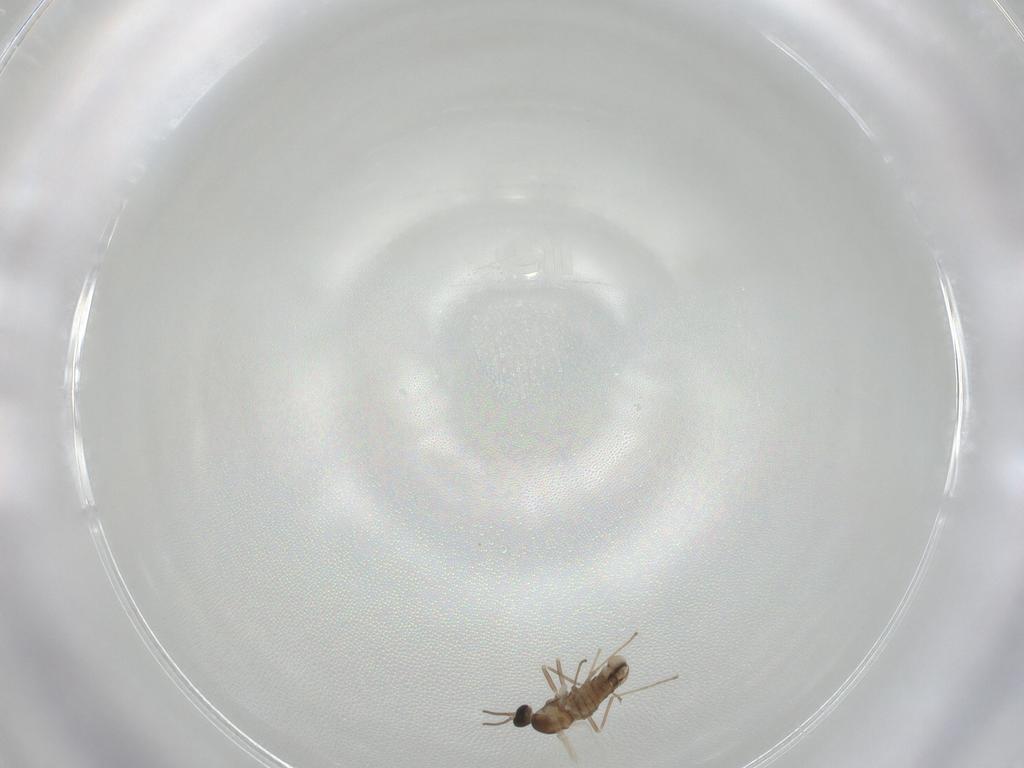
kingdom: Animalia
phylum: Arthropoda
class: Insecta
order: Diptera
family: Cecidomyiidae
